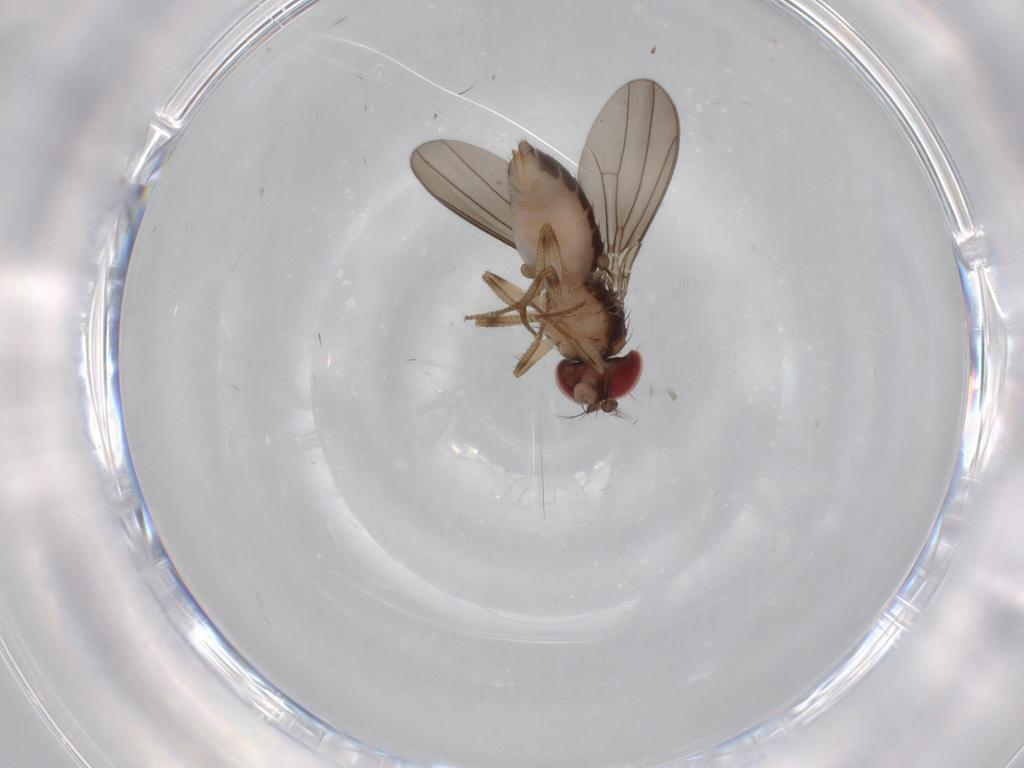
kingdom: Animalia
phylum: Arthropoda
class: Insecta
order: Diptera
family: Drosophilidae
